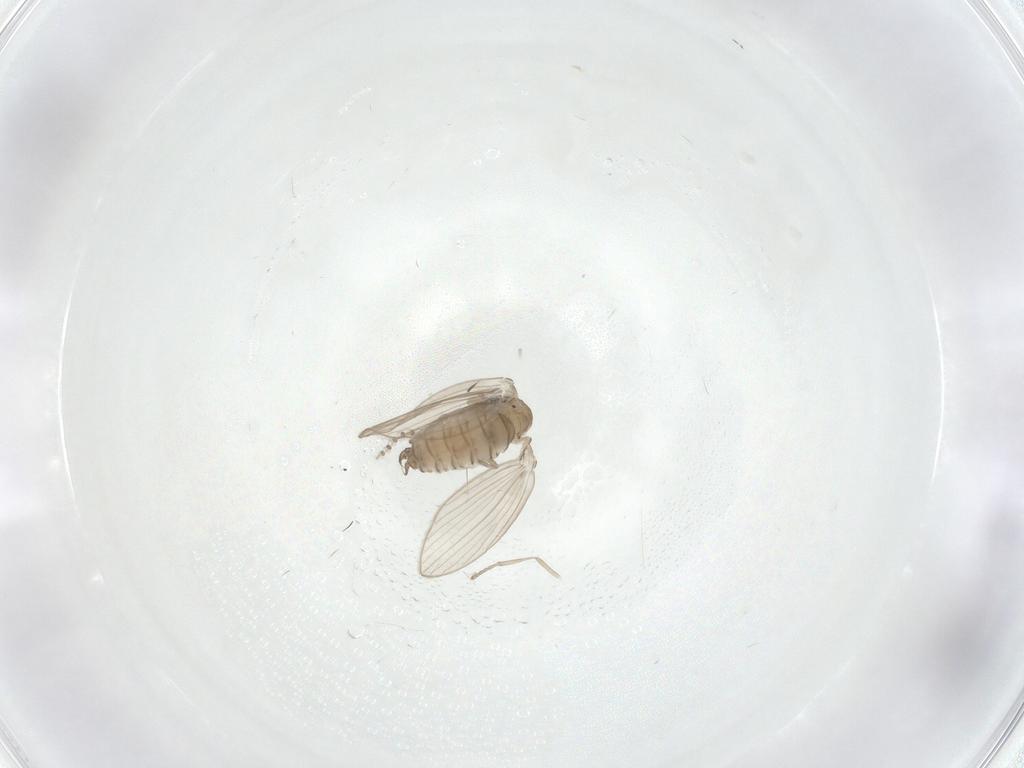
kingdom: Animalia
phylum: Arthropoda
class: Insecta
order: Diptera
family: Psychodidae
